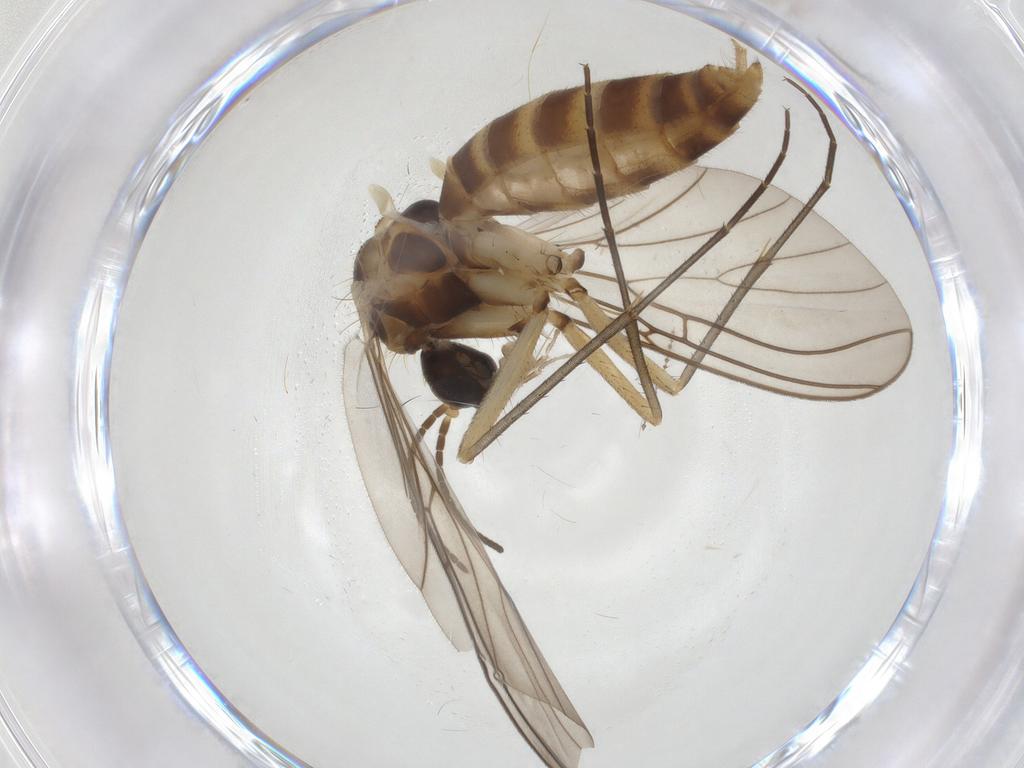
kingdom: Animalia
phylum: Arthropoda
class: Insecta
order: Diptera
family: Mycetophilidae
